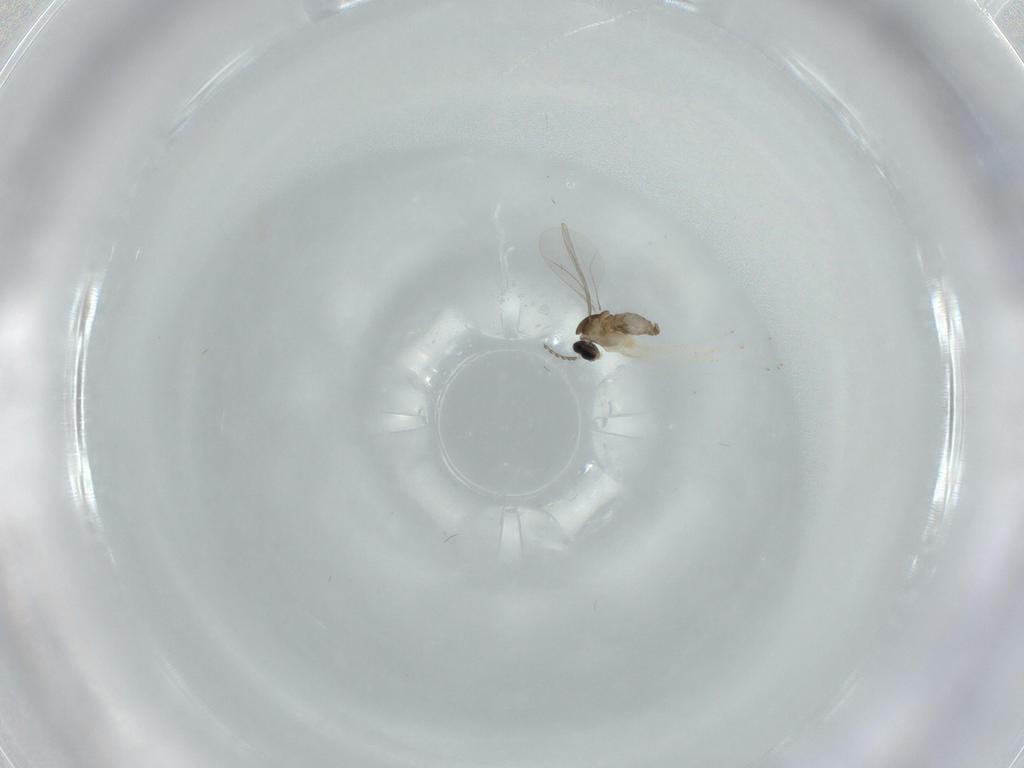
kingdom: Animalia
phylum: Arthropoda
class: Insecta
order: Diptera
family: Cecidomyiidae
